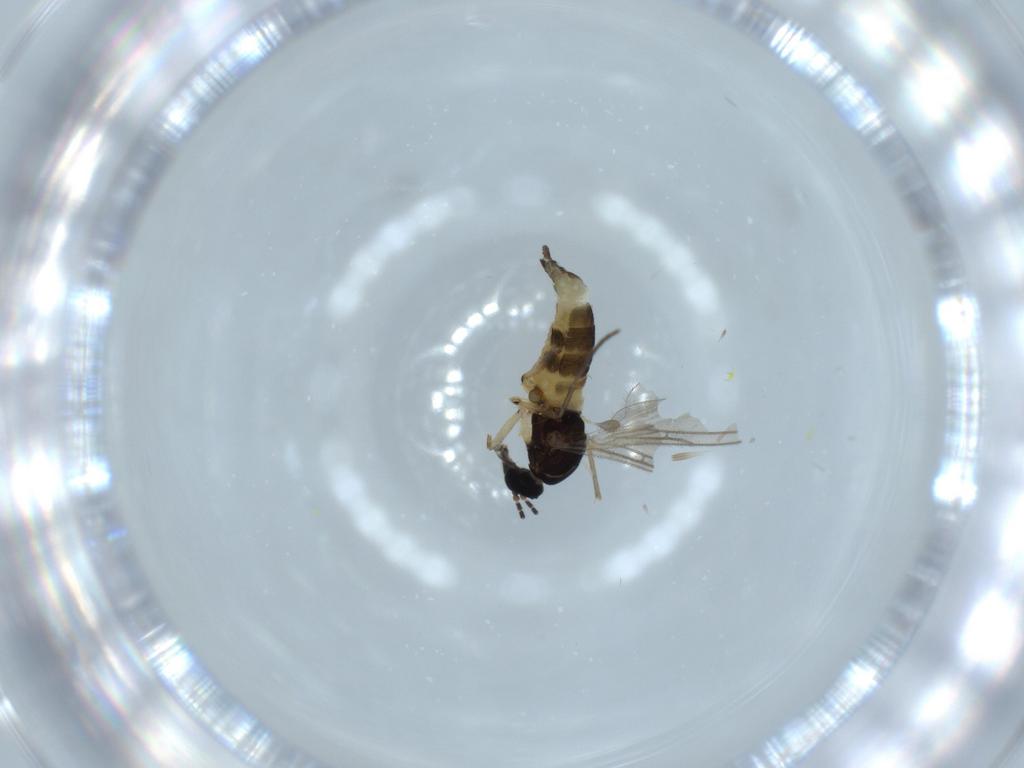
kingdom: Animalia
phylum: Arthropoda
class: Insecta
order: Diptera
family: Sciaridae
